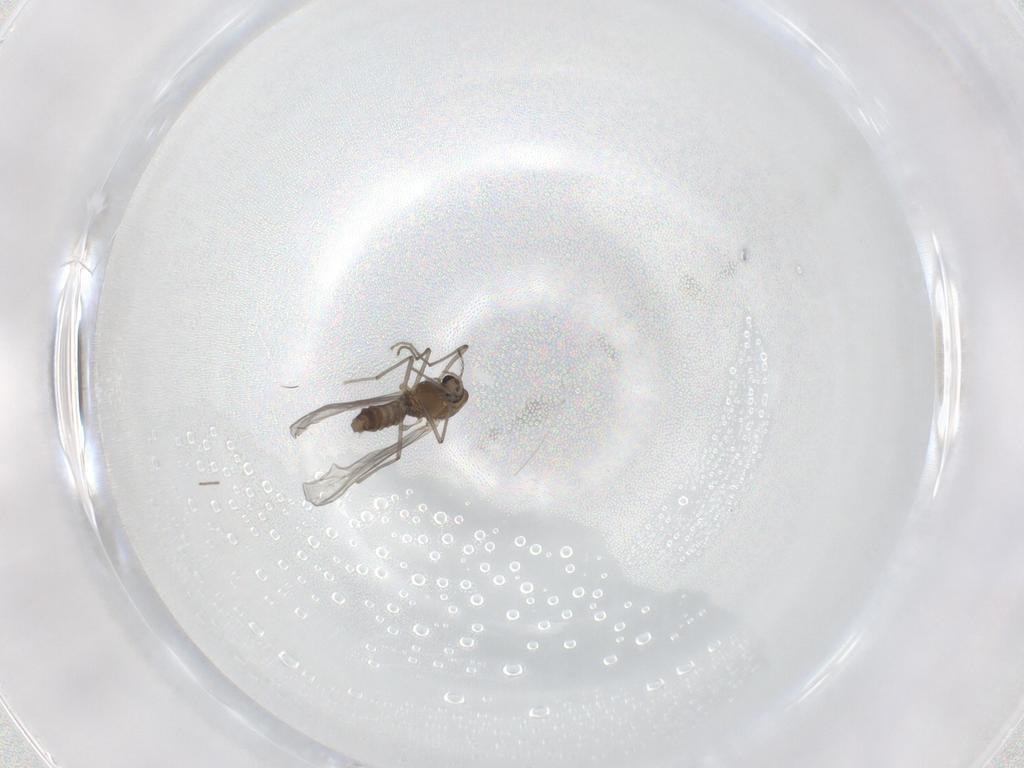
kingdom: Animalia
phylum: Arthropoda
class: Insecta
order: Diptera
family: Chironomidae
